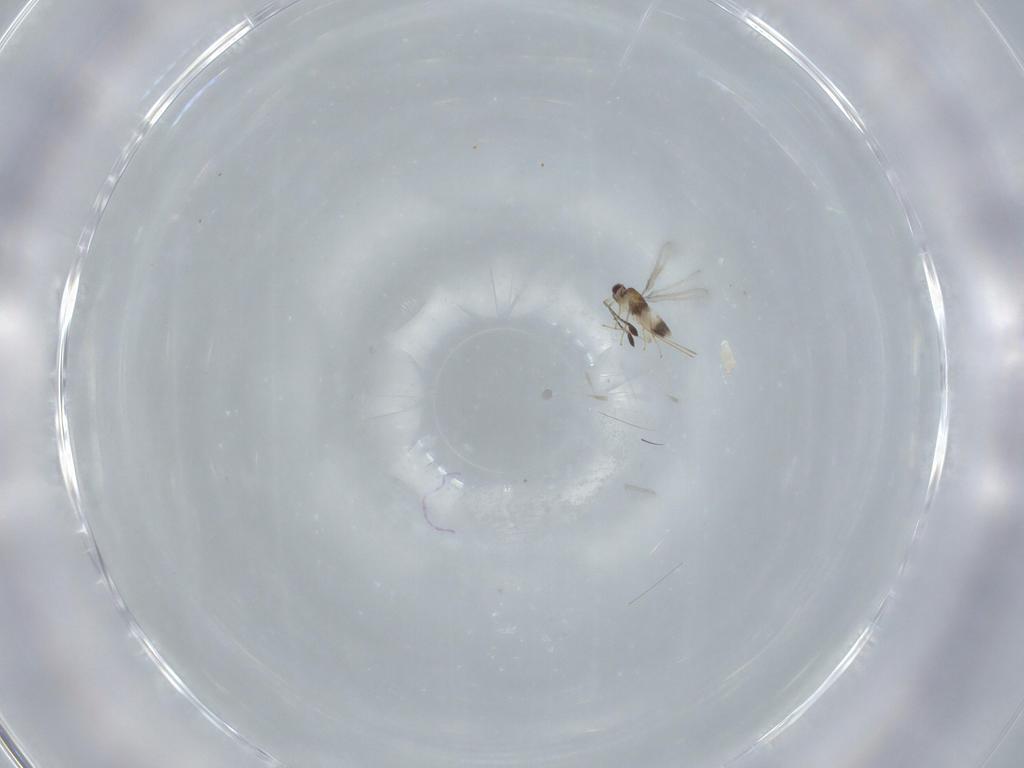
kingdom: Animalia
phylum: Arthropoda
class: Insecta
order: Hymenoptera
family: Mymaridae
